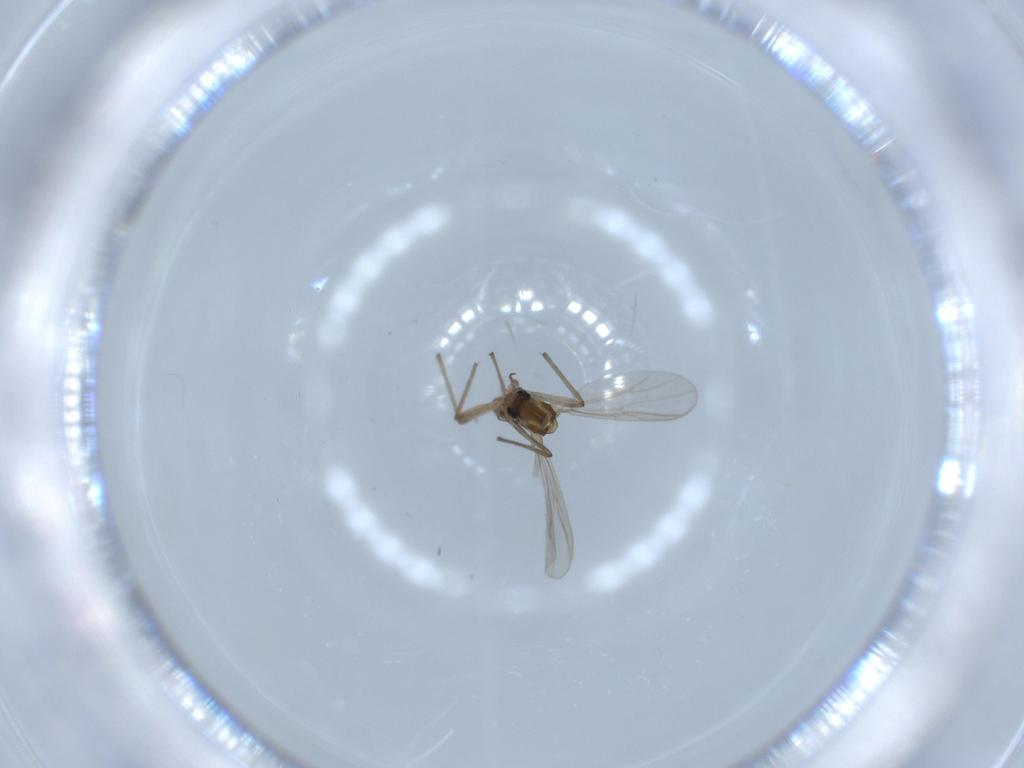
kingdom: Animalia
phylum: Arthropoda
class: Insecta
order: Diptera
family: Chironomidae
